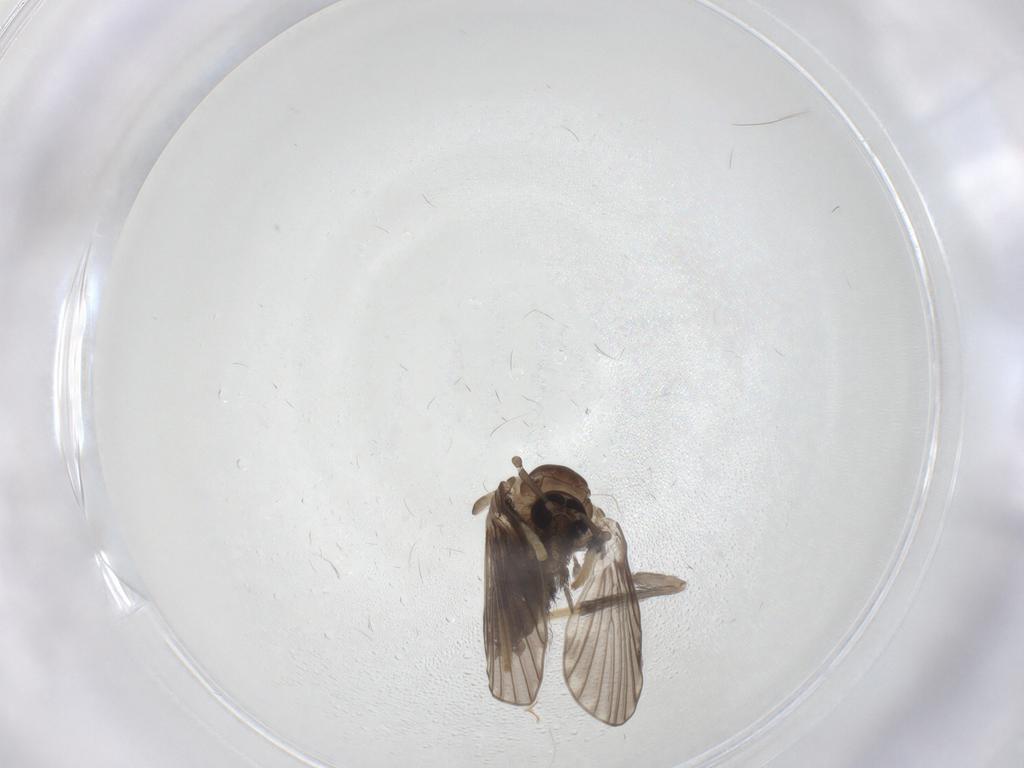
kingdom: Animalia
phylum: Arthropoda
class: Insecta
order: Diptera
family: Psychodidae
